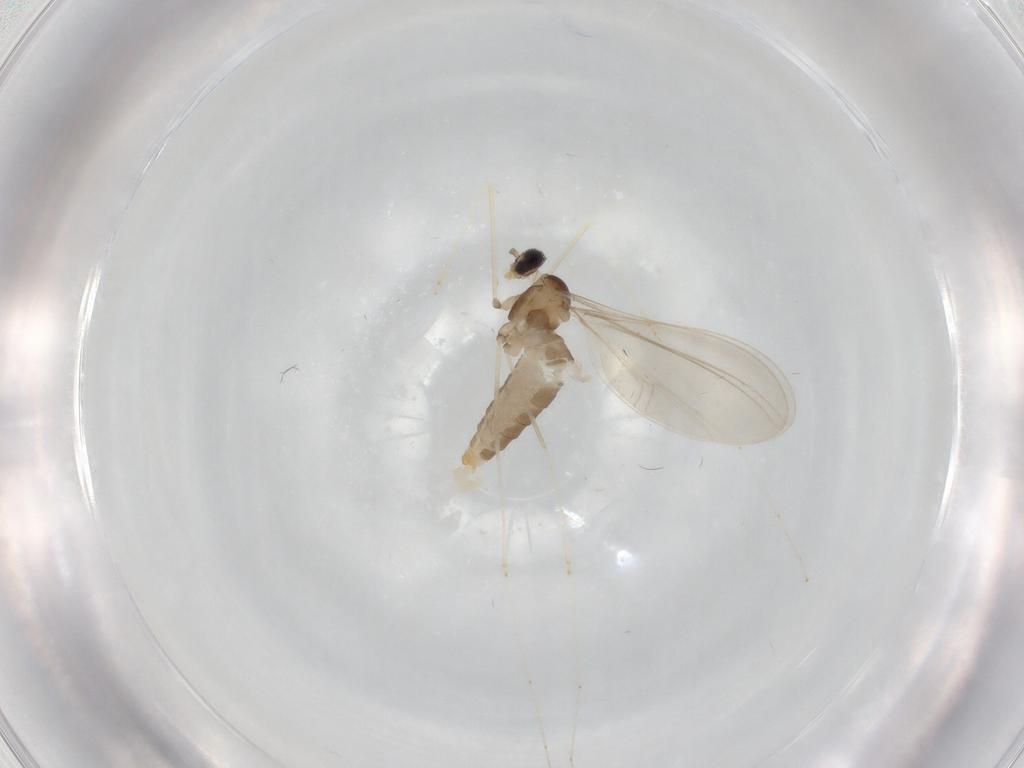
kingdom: Animalia
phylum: Arthropoda
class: Insecta
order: Diptera
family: Cecidomyiidae
